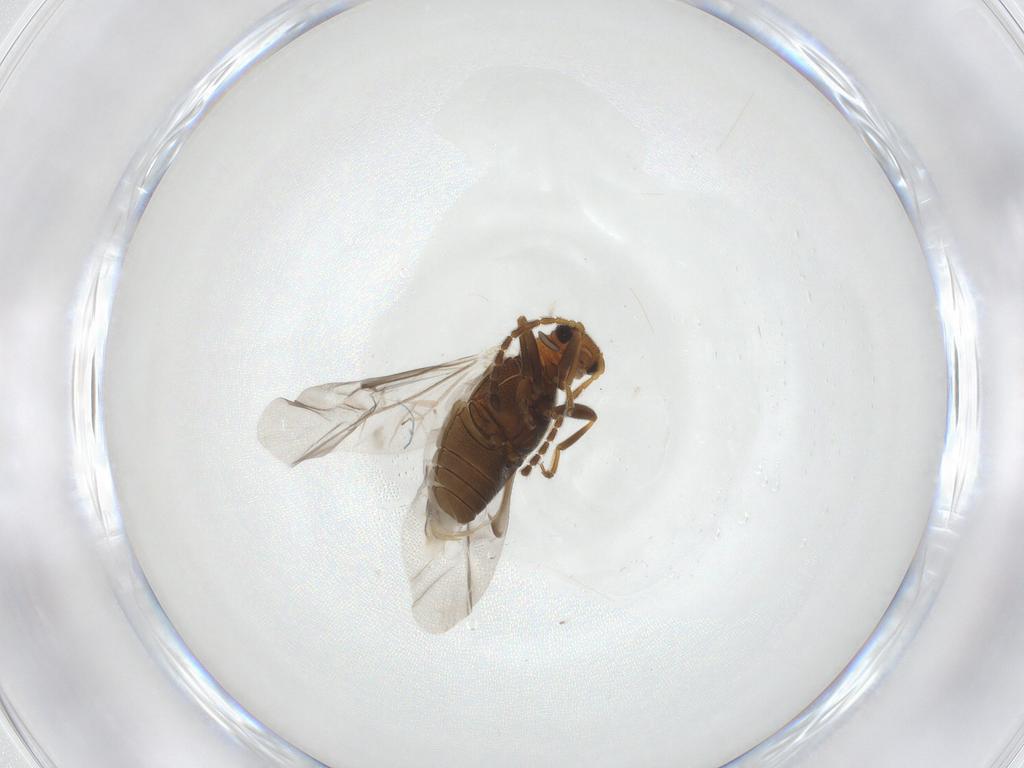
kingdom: Animalia
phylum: Arthropoda
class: Insecta
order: Coleoptera
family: Aderidae
